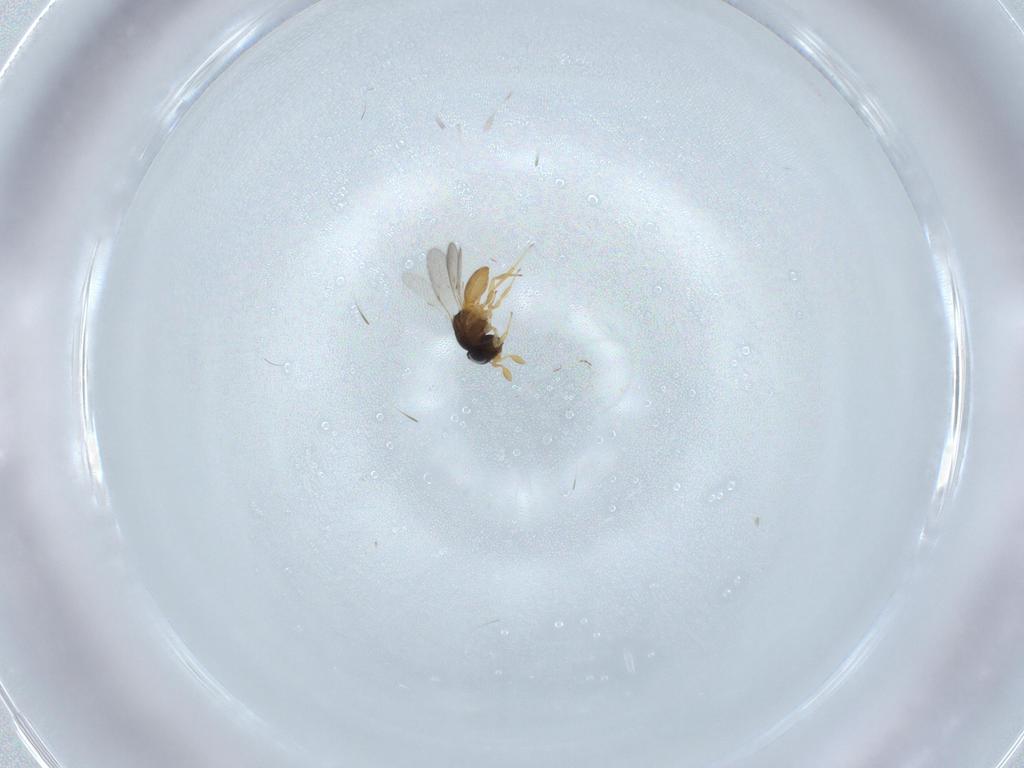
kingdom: Animalia
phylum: Arthropoda
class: Insecta
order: Hymenoptera
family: Scelionidae
